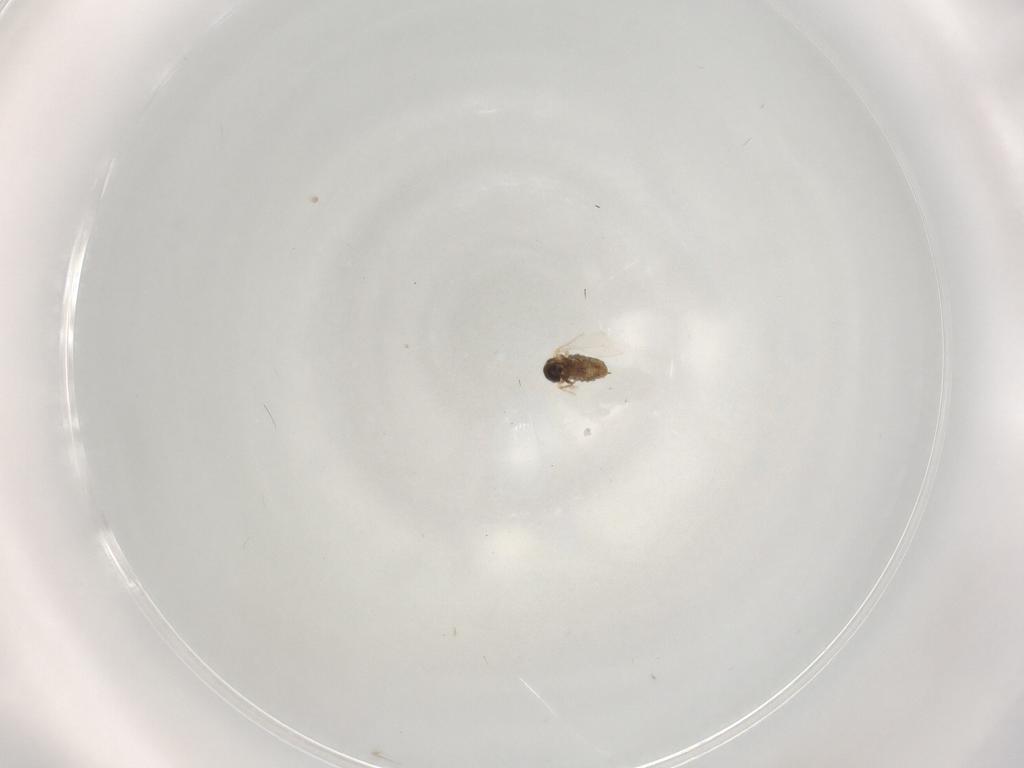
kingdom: Animalia
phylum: Arthropoda
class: Insecta
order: Diptera
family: Cecidomyiidae
